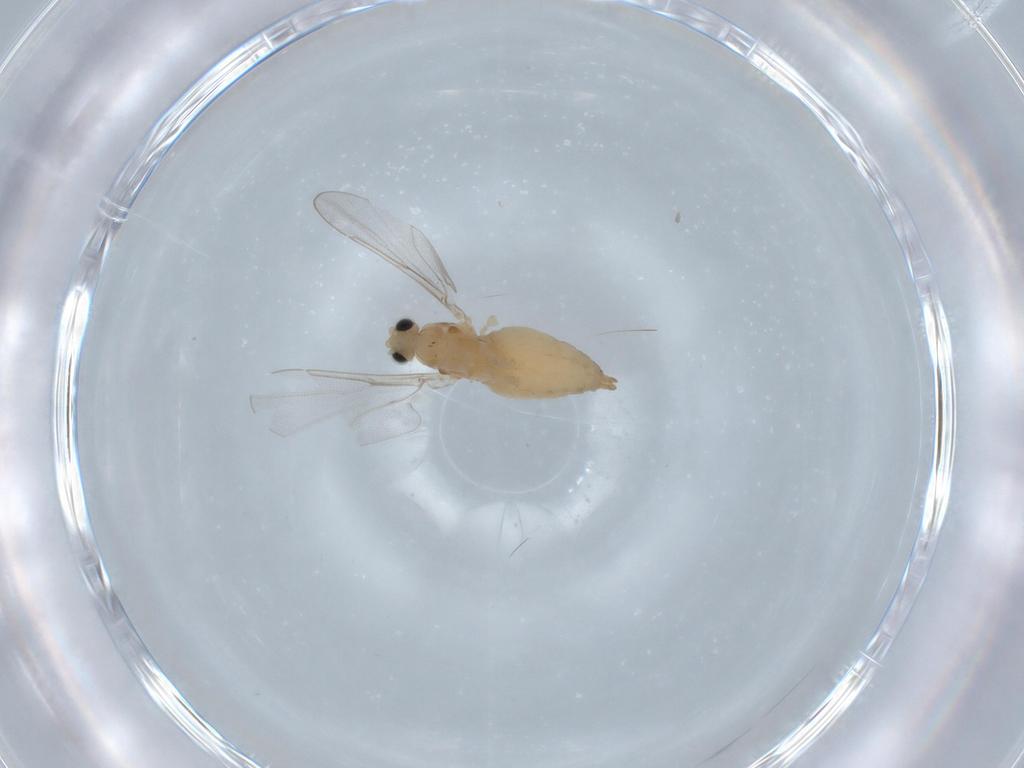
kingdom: Animalia
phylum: Arthropoda
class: Insecta
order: Diptera
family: Cecidomyiidae
